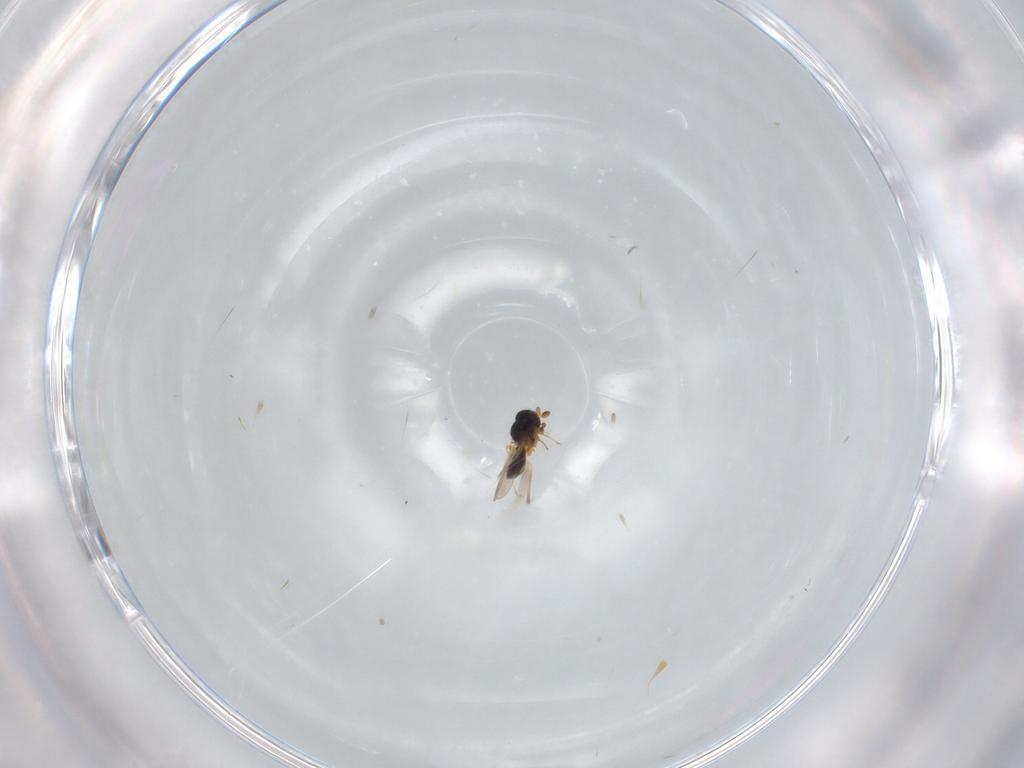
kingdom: Animalia
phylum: Arthropoda
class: Insecta
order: Hymenoptera
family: Platygastridae
